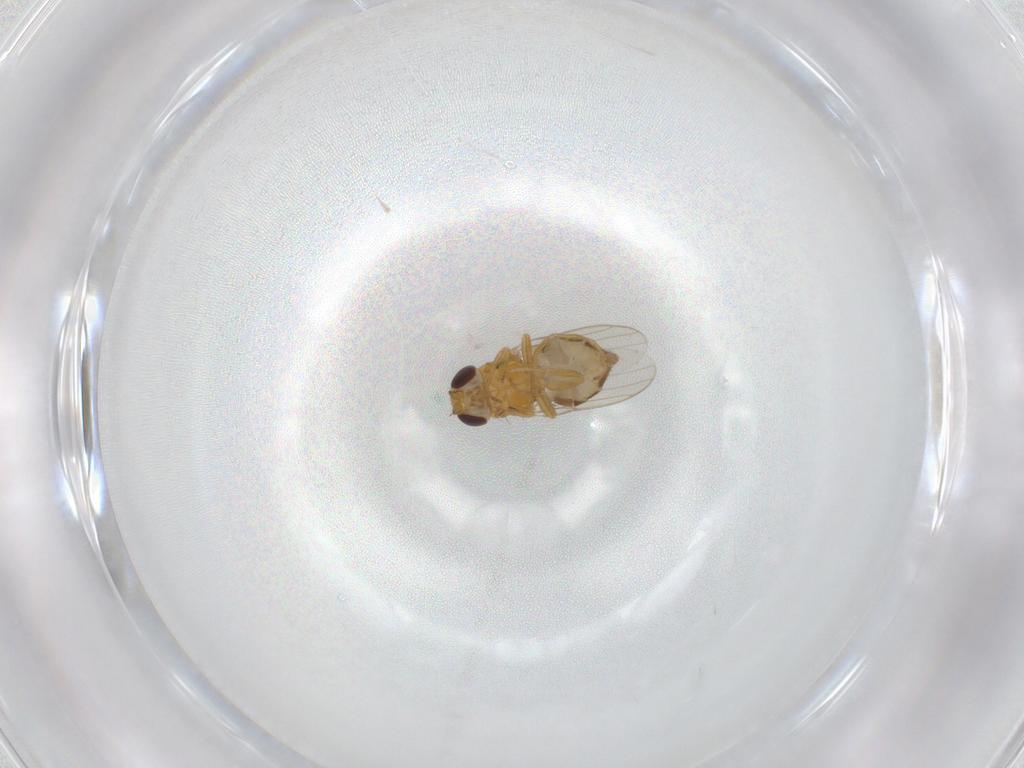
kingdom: Animalia
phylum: Arthropoda
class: Insecta
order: Diptera
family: Chloropidae
